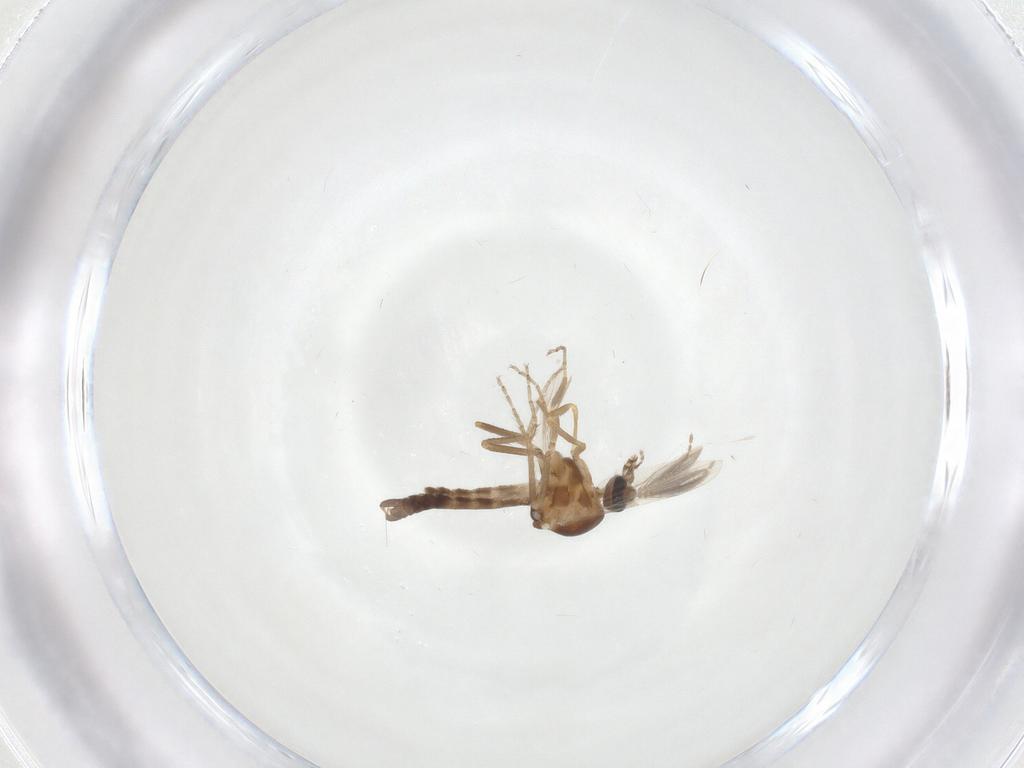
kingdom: Animalia
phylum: Arthropoda
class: Insecta
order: Diptera
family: Ceratopogonidae
